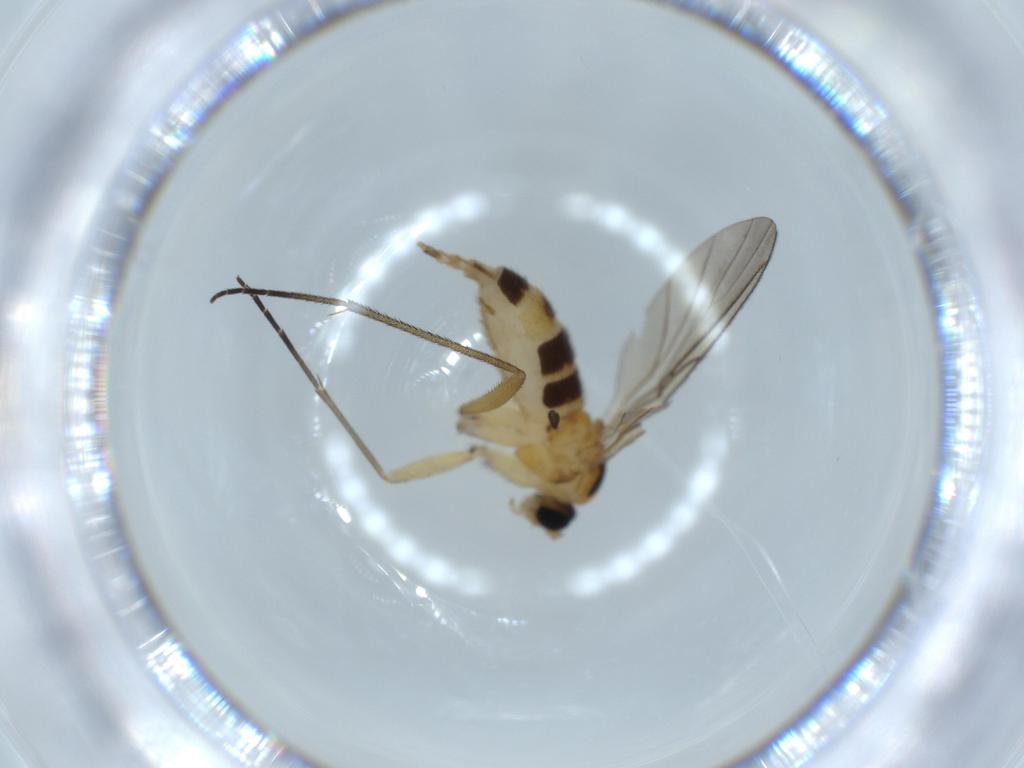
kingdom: Animalia
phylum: Arthropoda
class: Insecta
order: Diptera
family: Sciaridae
